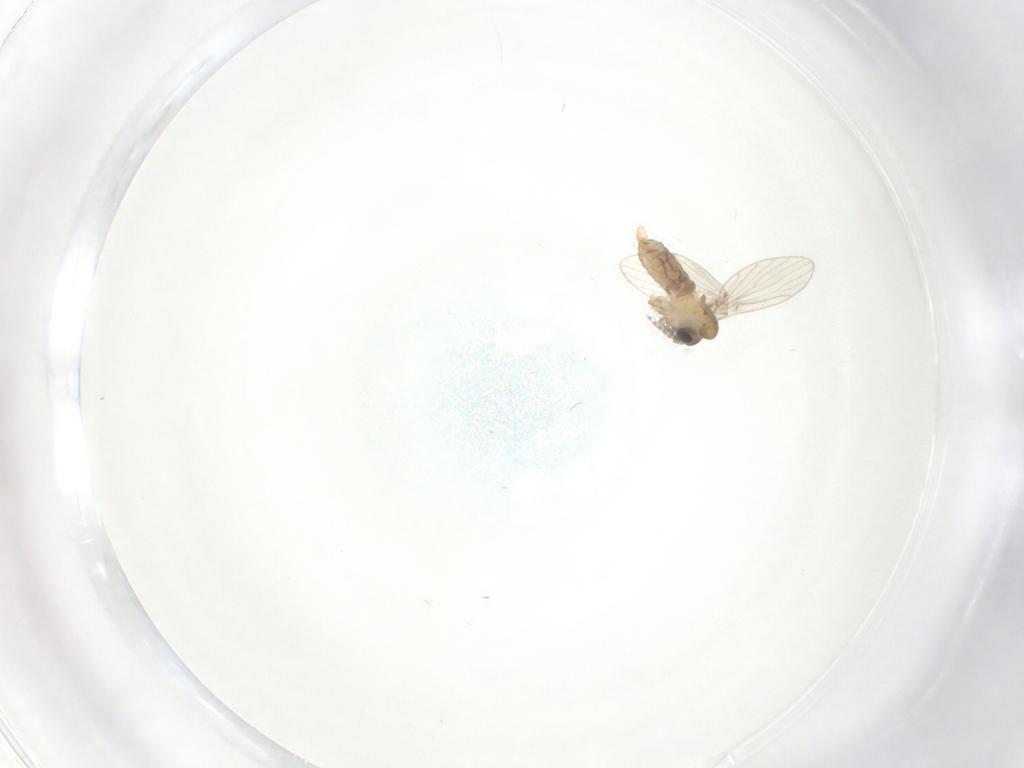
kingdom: Animalia
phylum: Arthropoda
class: Insecta
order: Diptera
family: Psychodidae
